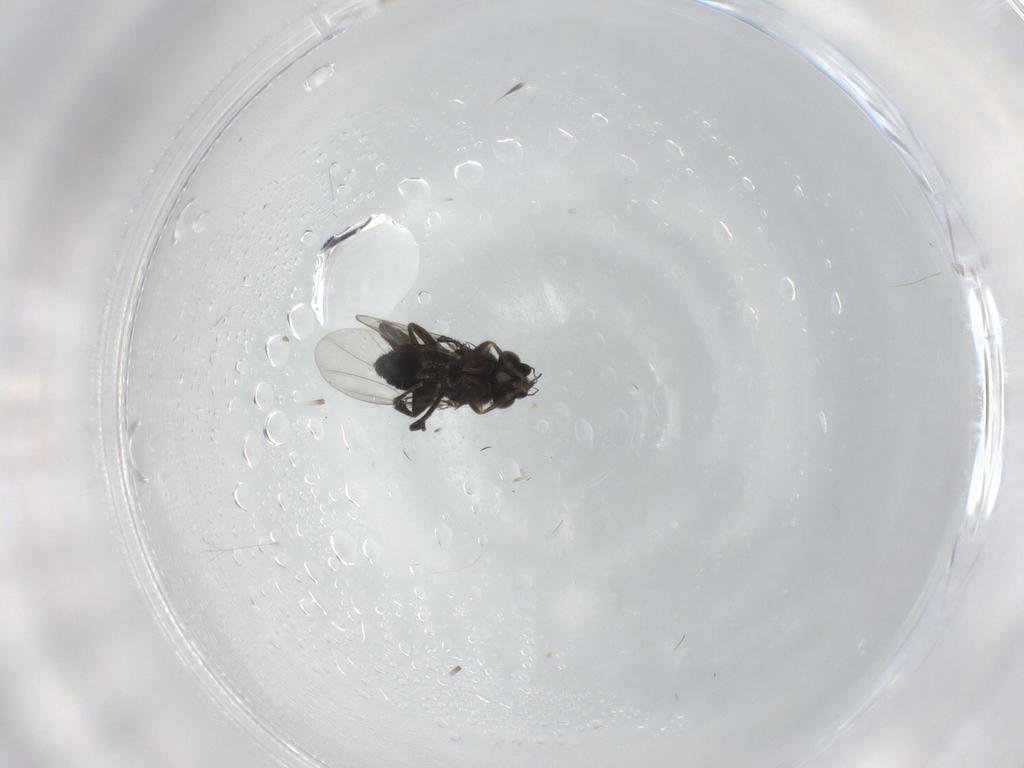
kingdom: Animalia
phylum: Arthropoda
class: Insecta
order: Diptera
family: Phoridae
